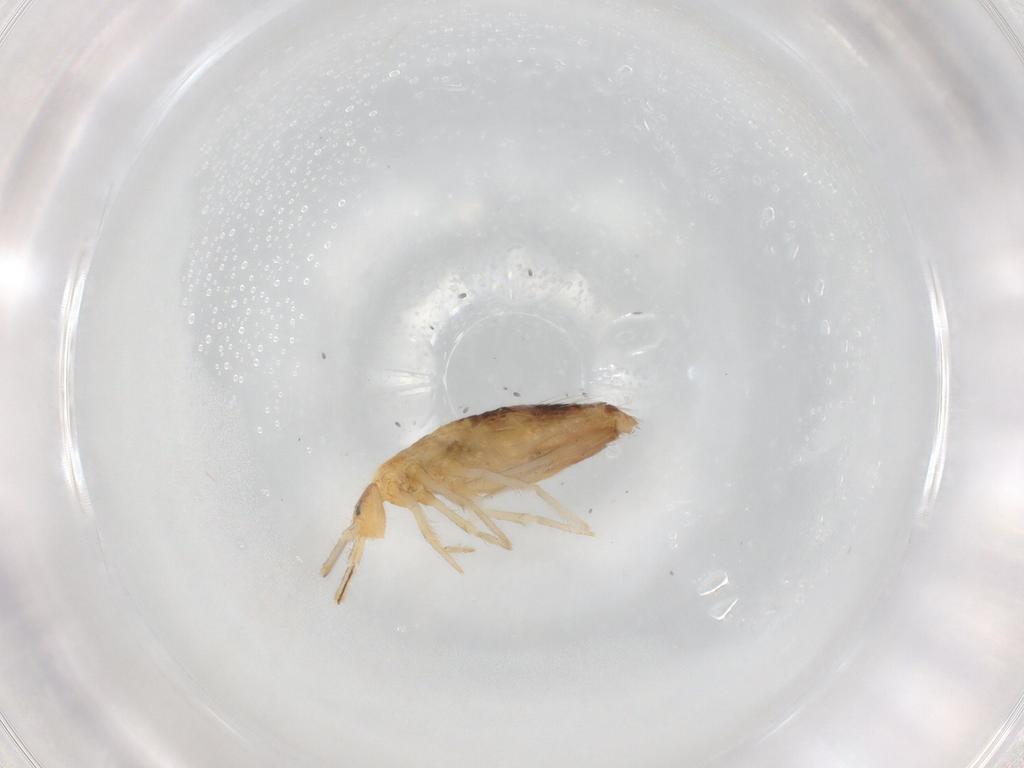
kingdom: Animalia
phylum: Arthropoda
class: Collembola
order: Entomobryomorpha
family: Entomobryidae
